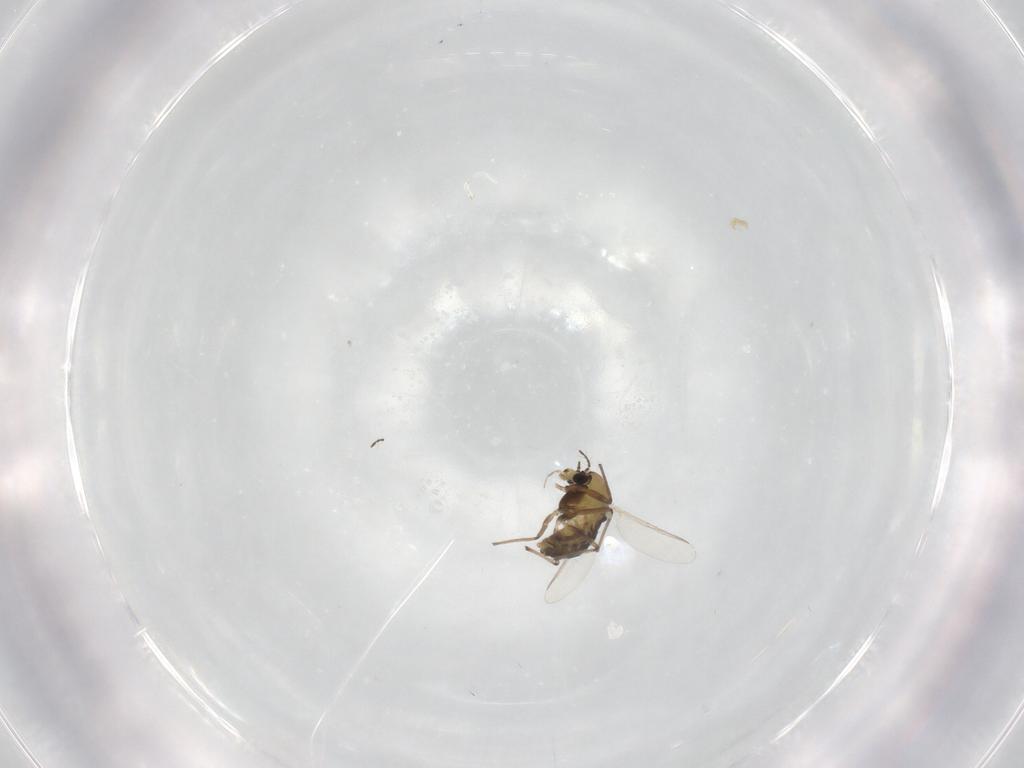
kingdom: Animalia
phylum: Arthropoda
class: Insecta
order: Diptera
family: Chironomidae
